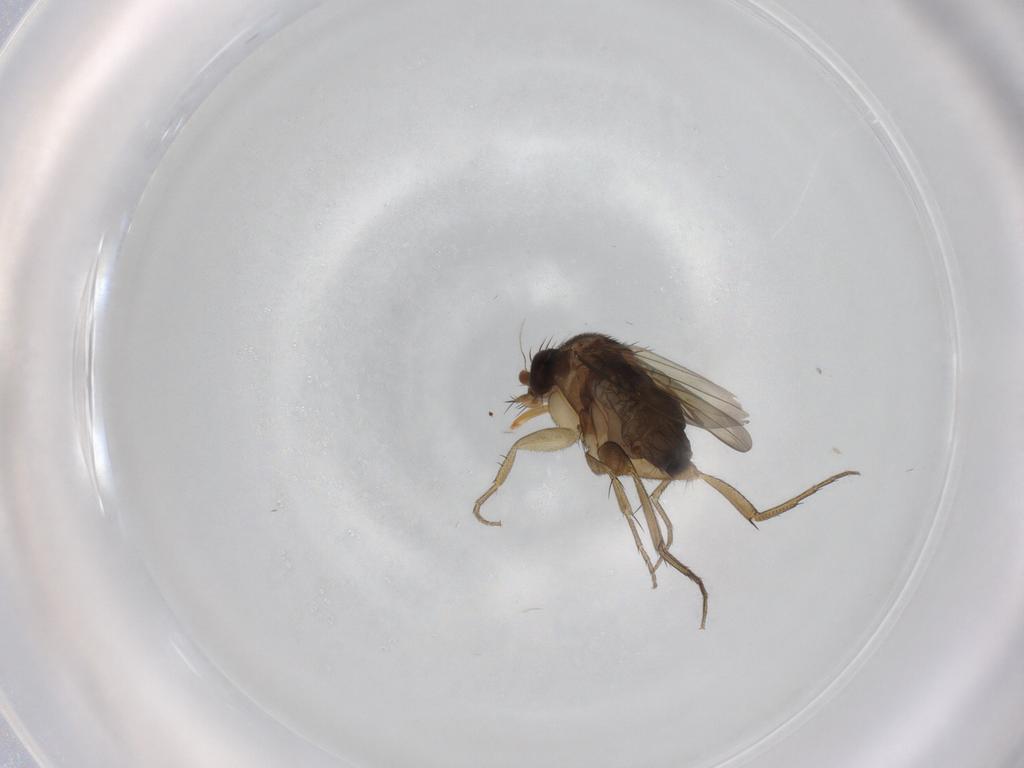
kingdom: Animalia
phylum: Arthropoda
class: Insecta
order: Diptera
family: Phoridae
